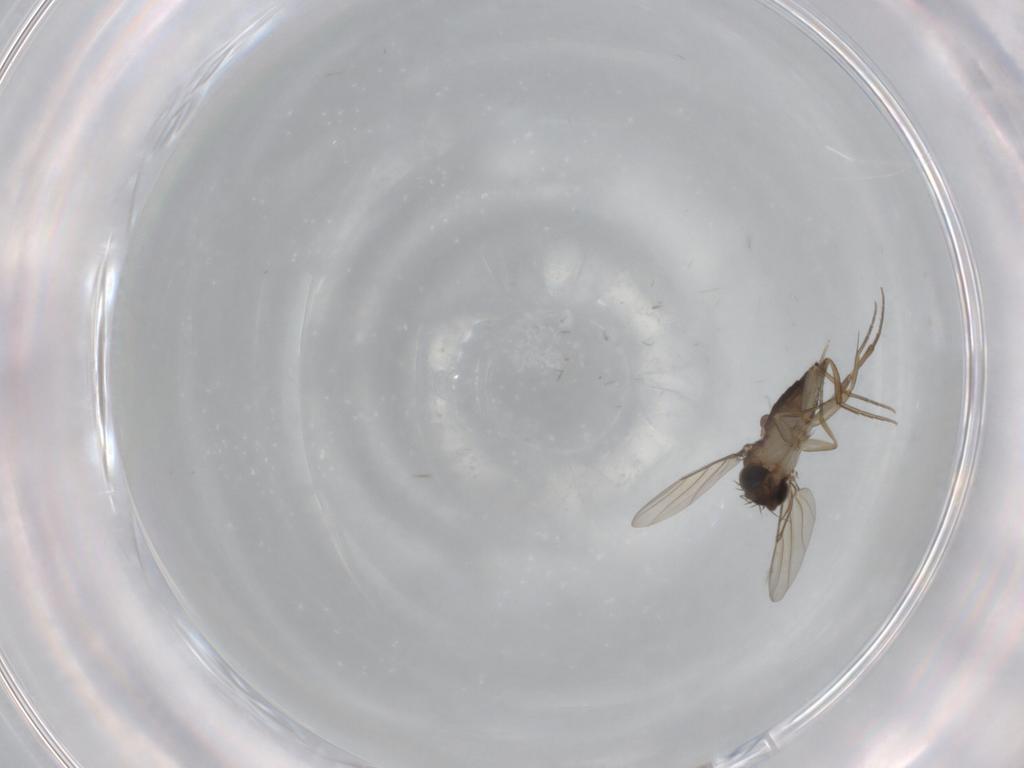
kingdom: Animalia
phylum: Arthropoda
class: Insecta
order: Diptera
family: Phoridae
